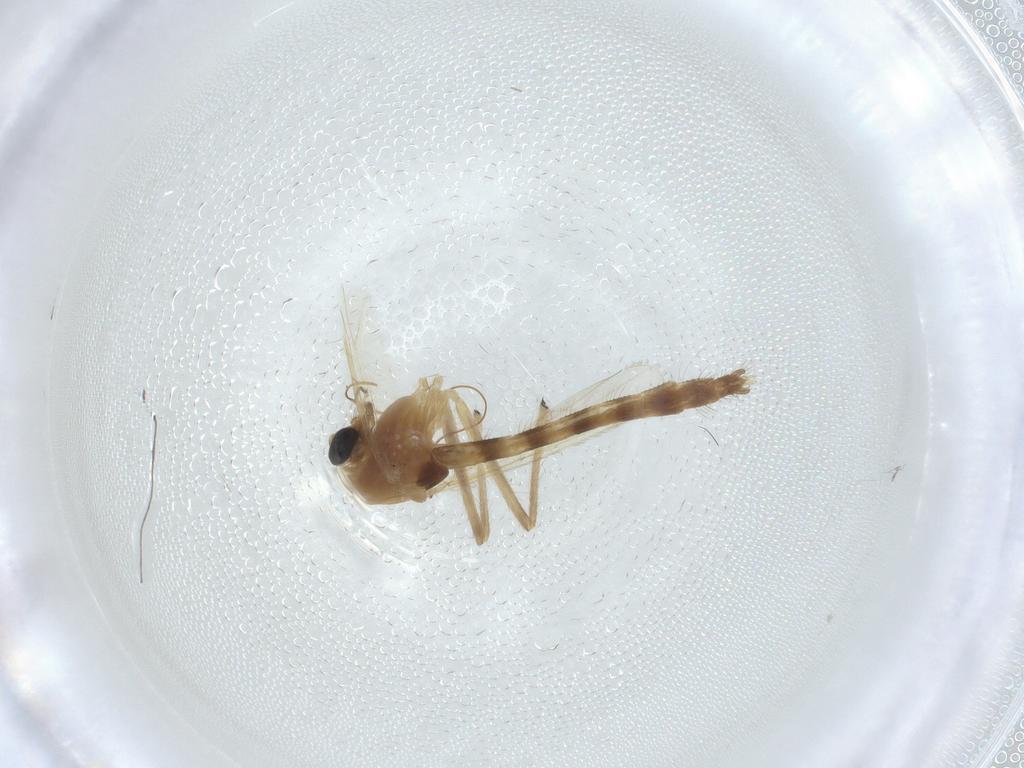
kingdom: Animalia
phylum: Arthropoda
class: Insecta
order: Diptera
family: Chironomidae
